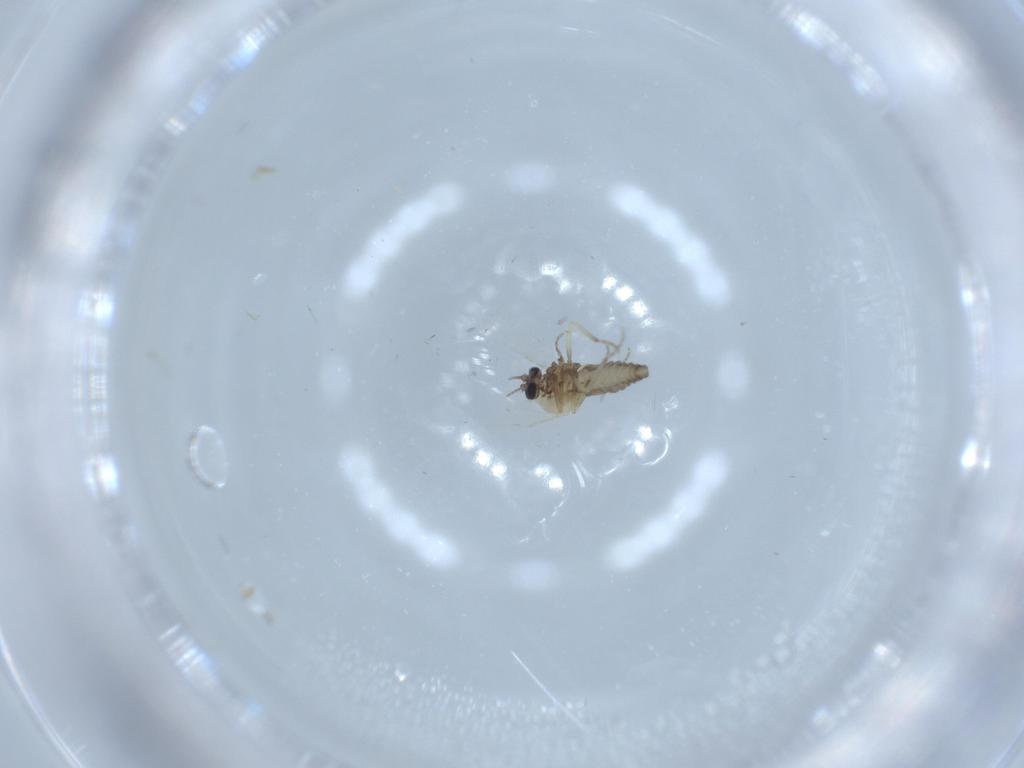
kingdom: Animalia
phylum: Arthropoda
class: Insecta
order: Diptera
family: Ceratopogonidae
